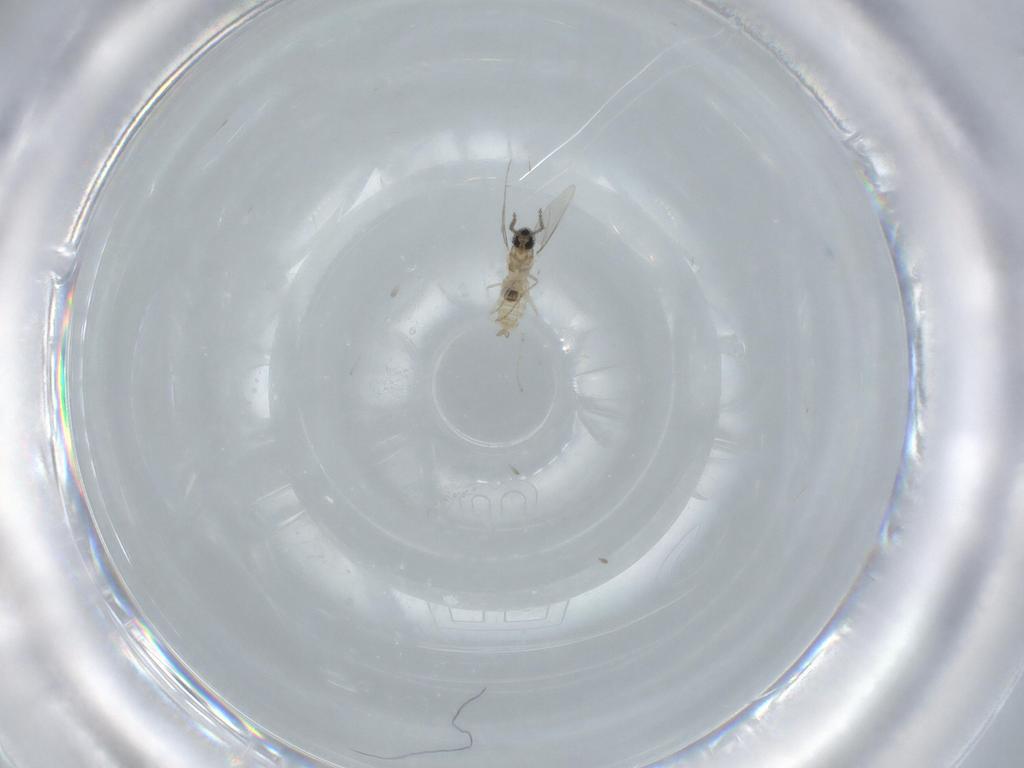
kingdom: Animalia
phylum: Arthropoda
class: Insecta
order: Diptera
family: Cecidomyiidae
